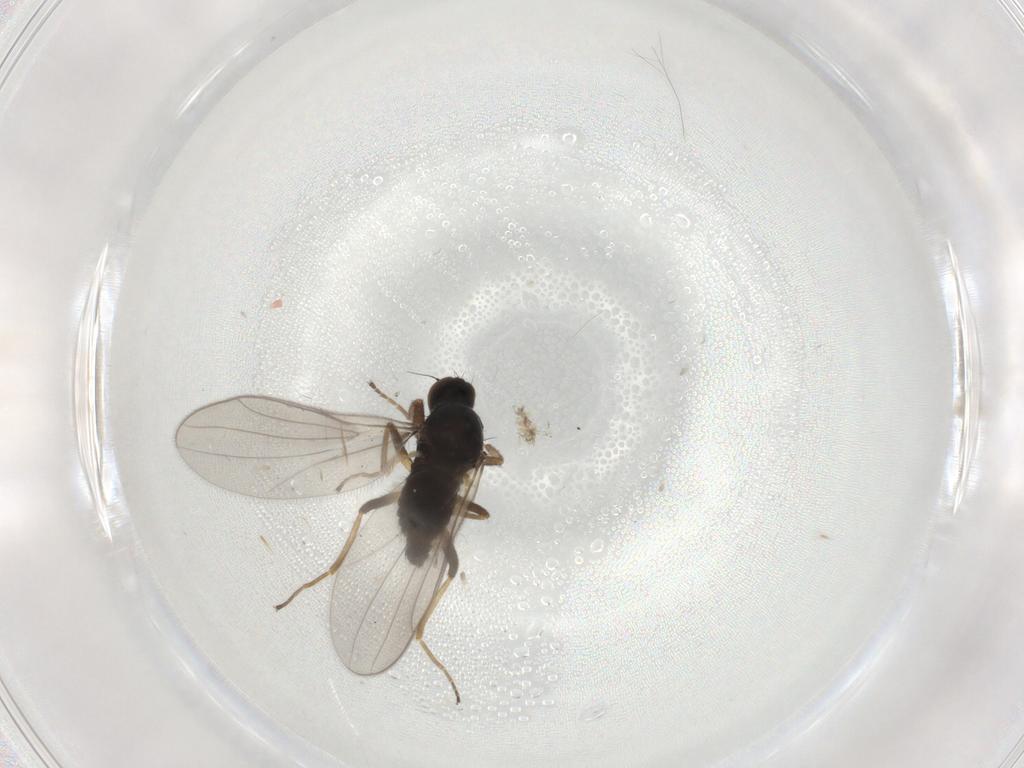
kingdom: Animalia
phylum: Arthropoda
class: Insecta
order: Diptera
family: Hybotidae
